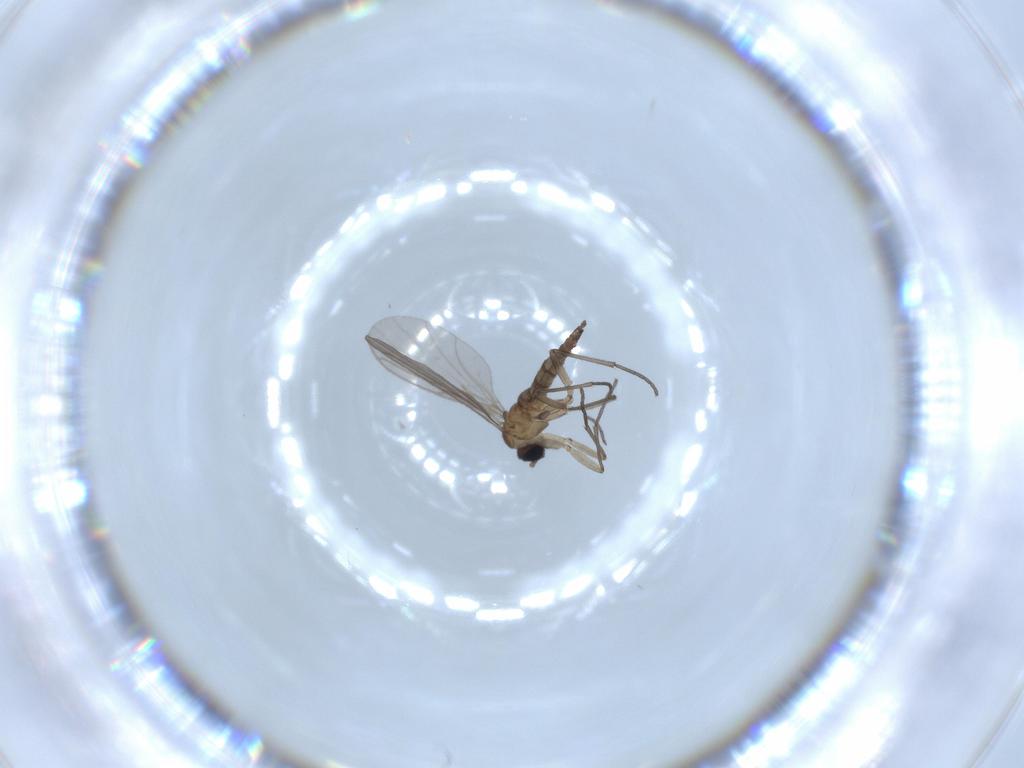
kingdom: Animalia
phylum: Arthropoda
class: Insecta
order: Diptera
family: Cecidomyiidae
